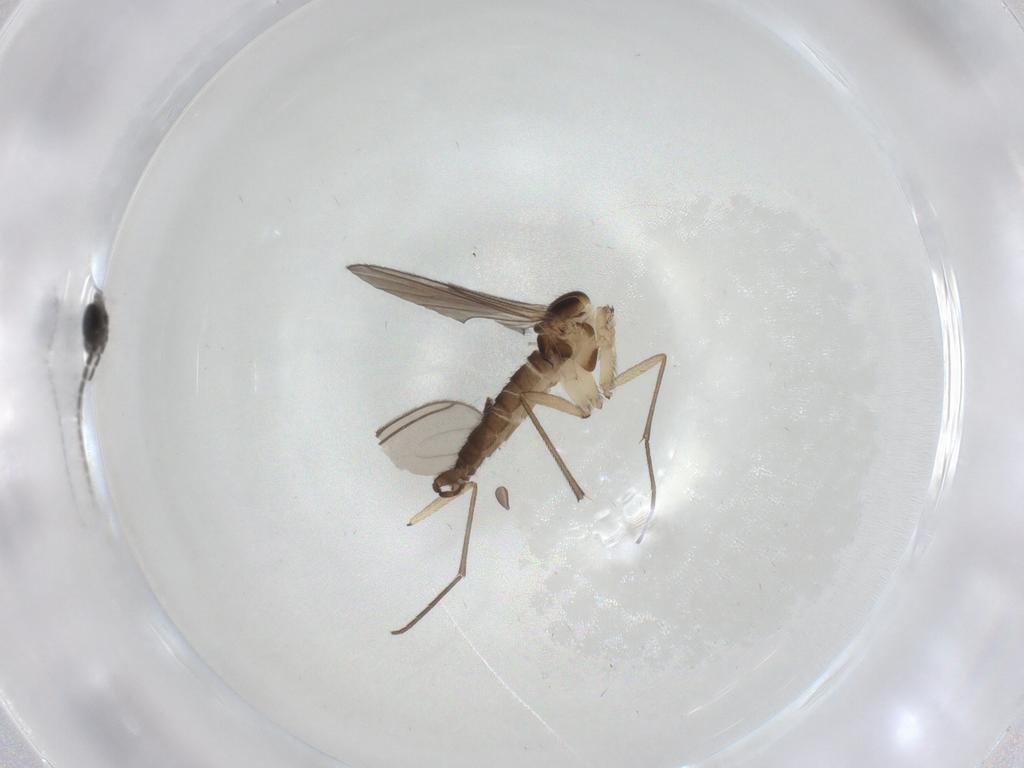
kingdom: Animalia
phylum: Arthropoda
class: Insecta
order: Diptera
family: Sciaridae
